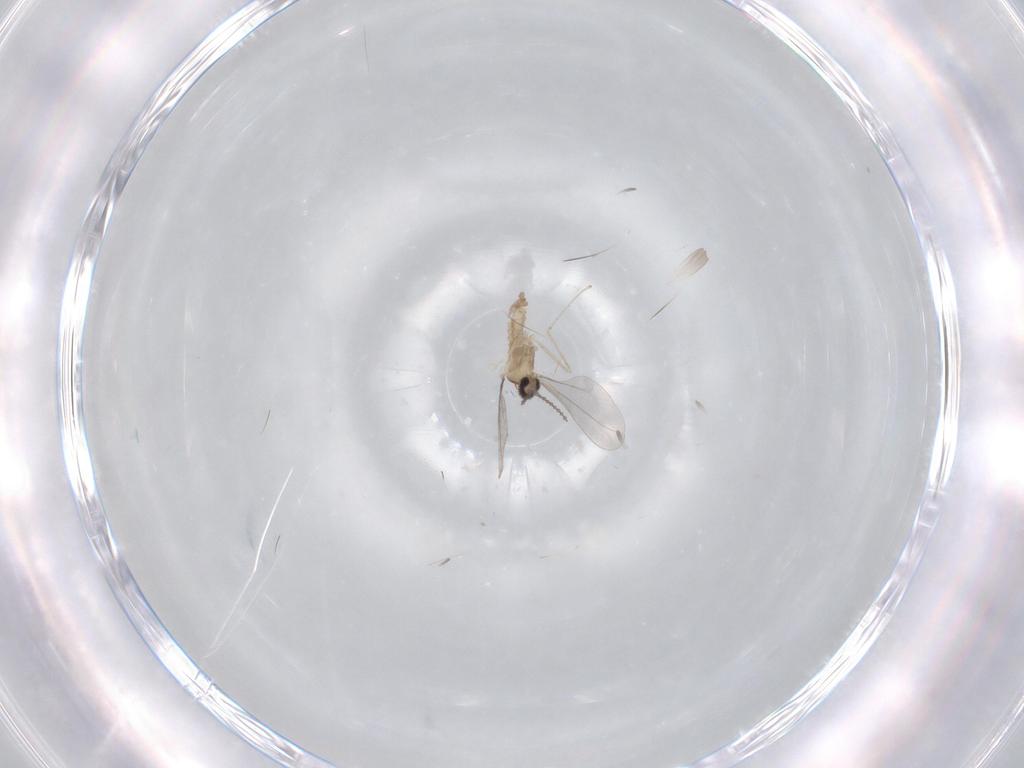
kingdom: Animalia
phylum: Arthropoda
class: Insecta
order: Diptera
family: Cecidomyiidae
